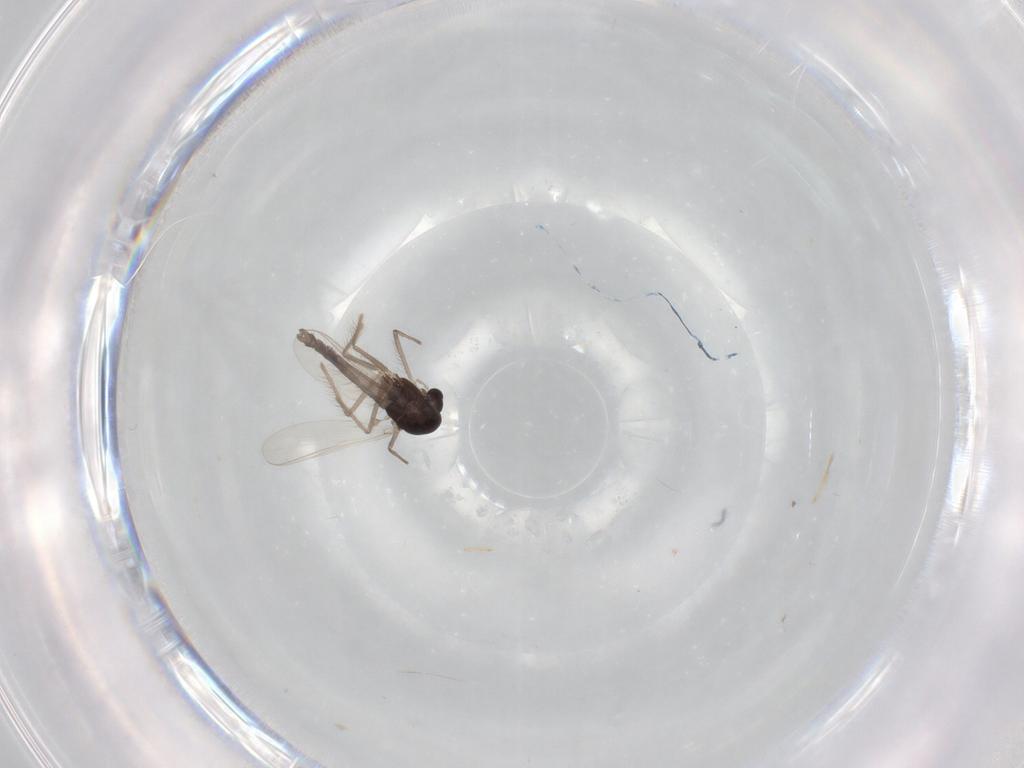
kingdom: Animalia
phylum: Arthropoda
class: Insecta
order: Diptera
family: Chironomidae
